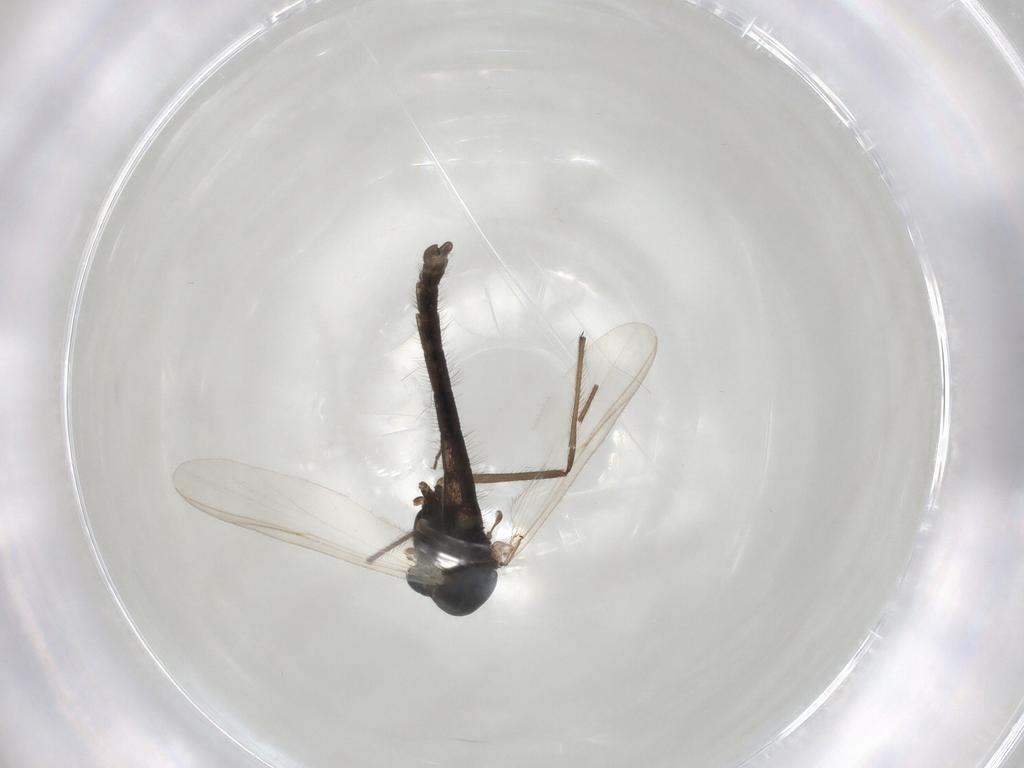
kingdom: Animalia
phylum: Arthropoda
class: Insecta
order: Diptera
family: Chironomidae
